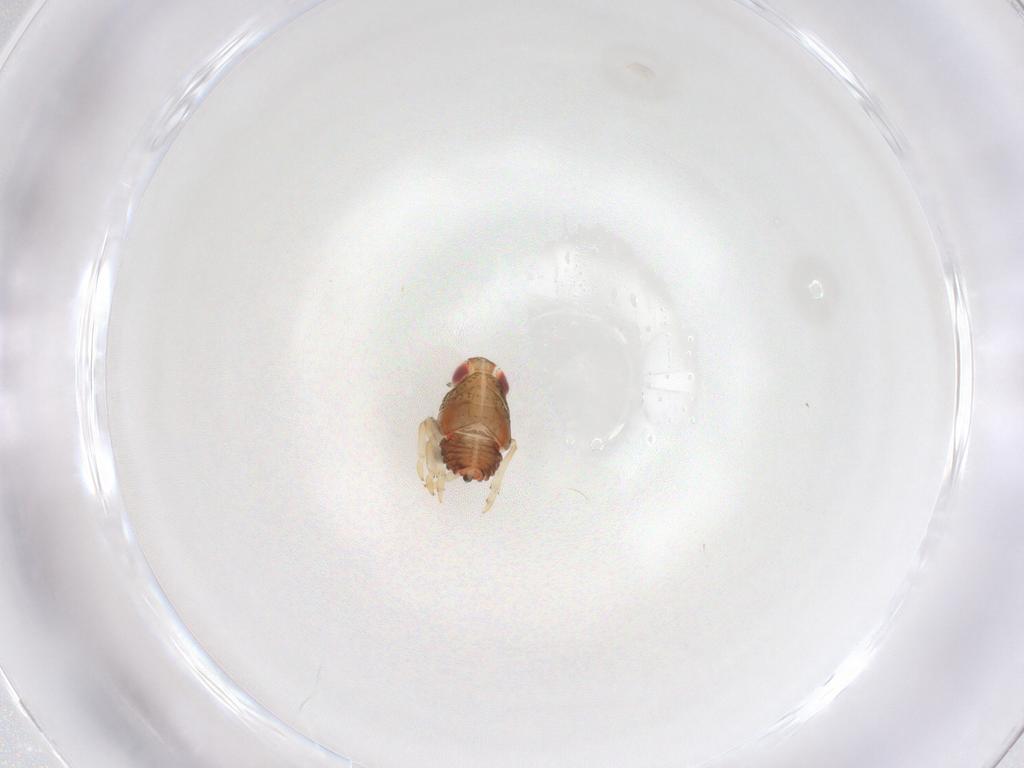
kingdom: Animalia
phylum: Arthropoda
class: Insecta
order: Hemiptera
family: Issidae
